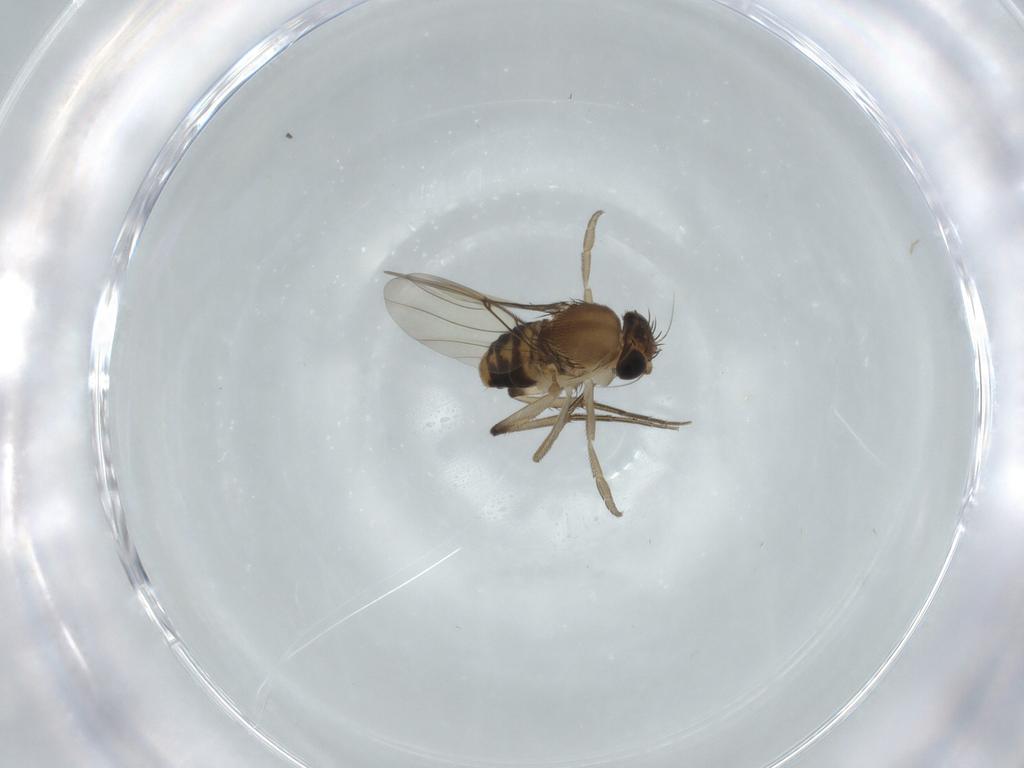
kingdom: Animalia
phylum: Arthropoda
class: Insecta
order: Diptera
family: Phoridae
